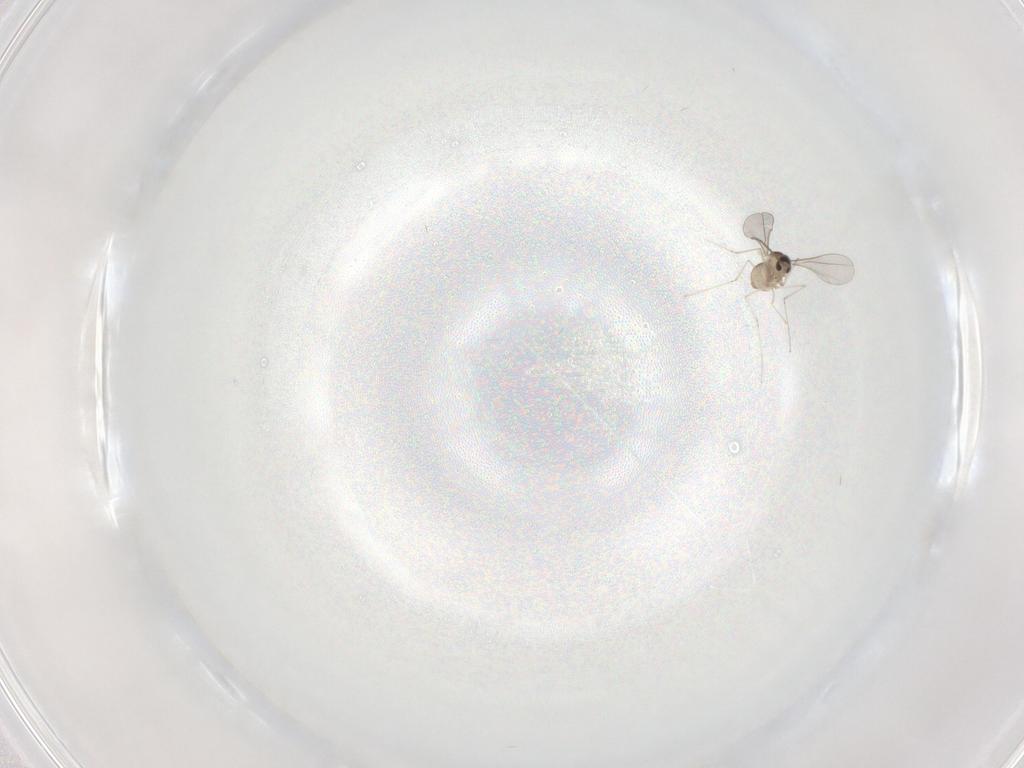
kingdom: Animalia
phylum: Arthropoda
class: Insecta
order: Diptera
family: Cecidomyiidae
